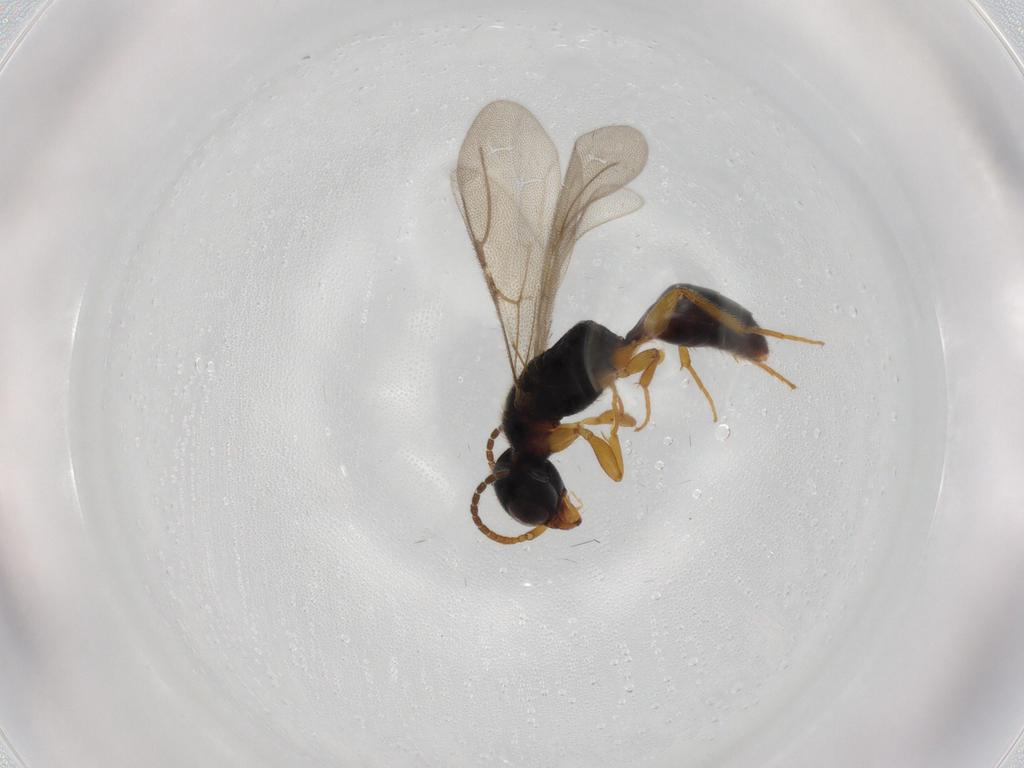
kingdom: Animalia
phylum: Arthropoda
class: Insecta
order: Hymenoptera
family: Bethylidae
